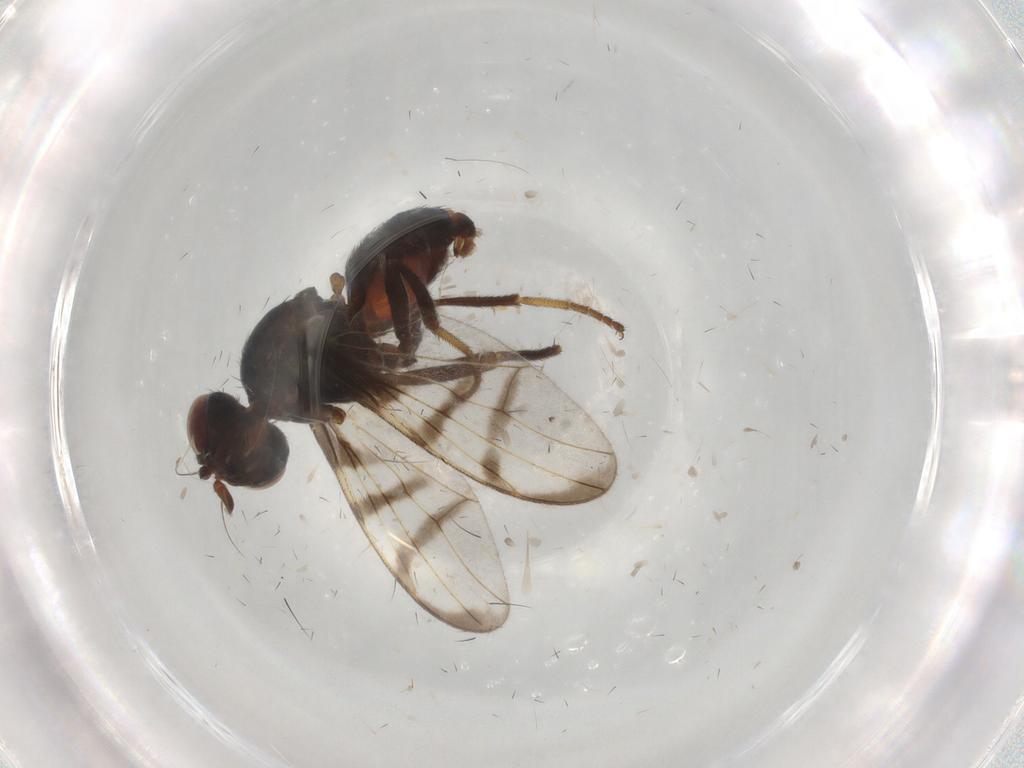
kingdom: Animalia
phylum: Arthropoda
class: Insecta
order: Diptera
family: Tipulidae
